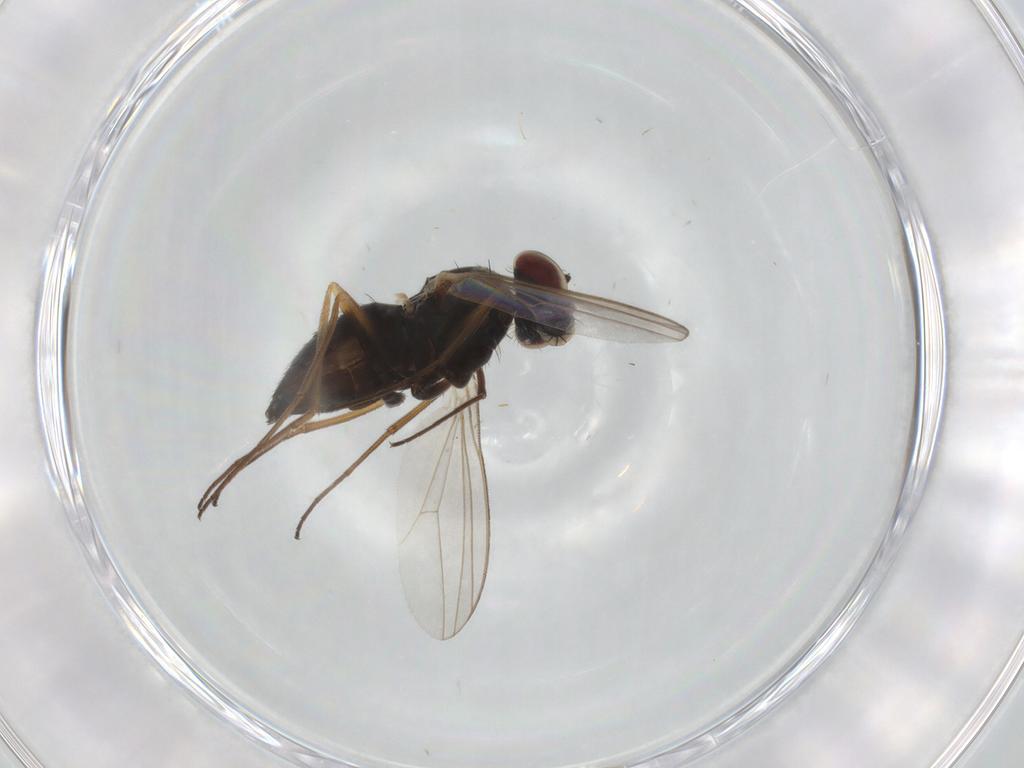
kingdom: Animalia
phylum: Arthropoda
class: Insecta
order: Diptera
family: Dolichopodidae
